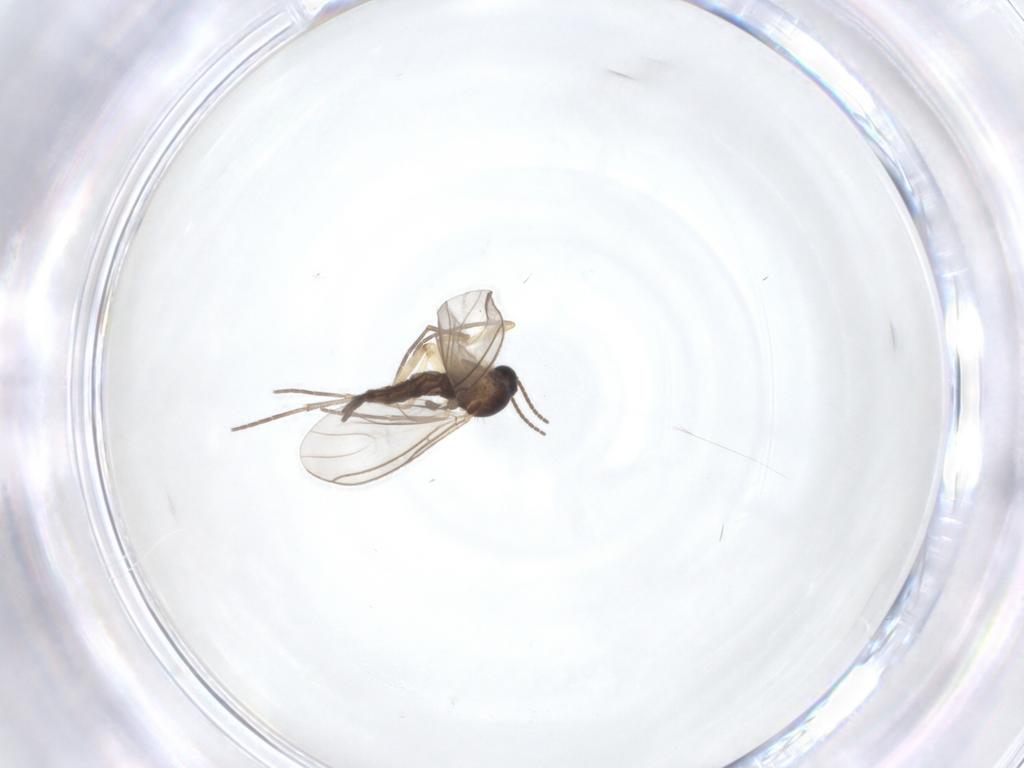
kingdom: Animalia
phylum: Arthropoda
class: Insecta
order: Diptera
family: Sciaridae
